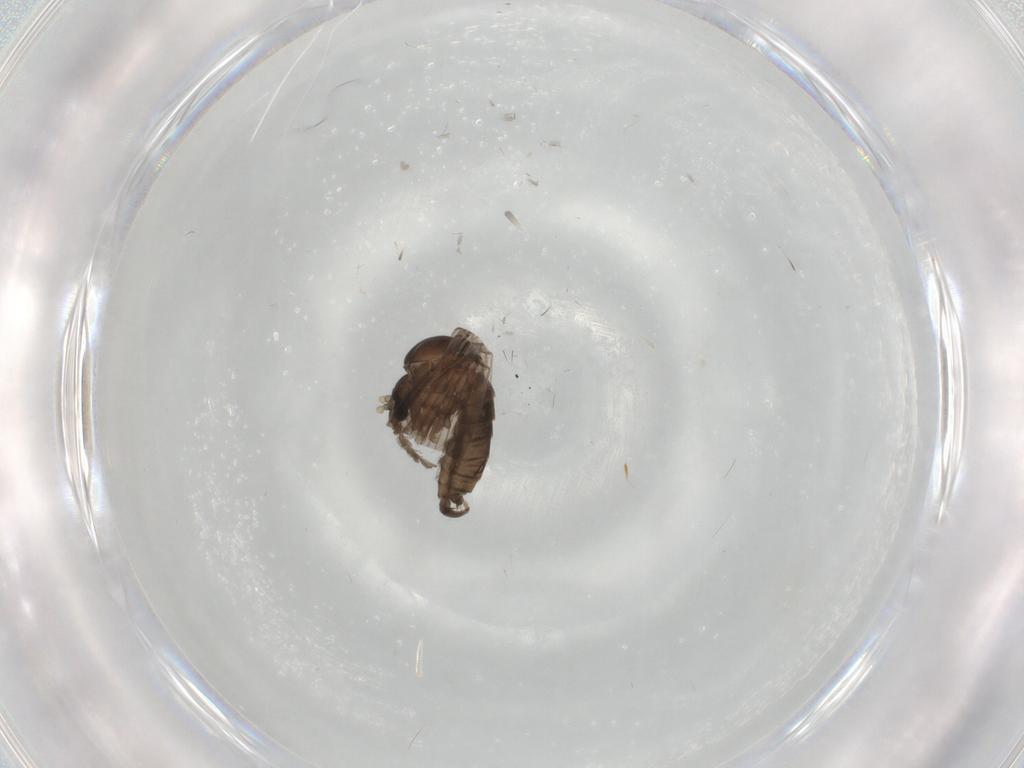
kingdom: Animalia
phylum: Arthropoda
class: Insecta
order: Diptera
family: Psychodidae
